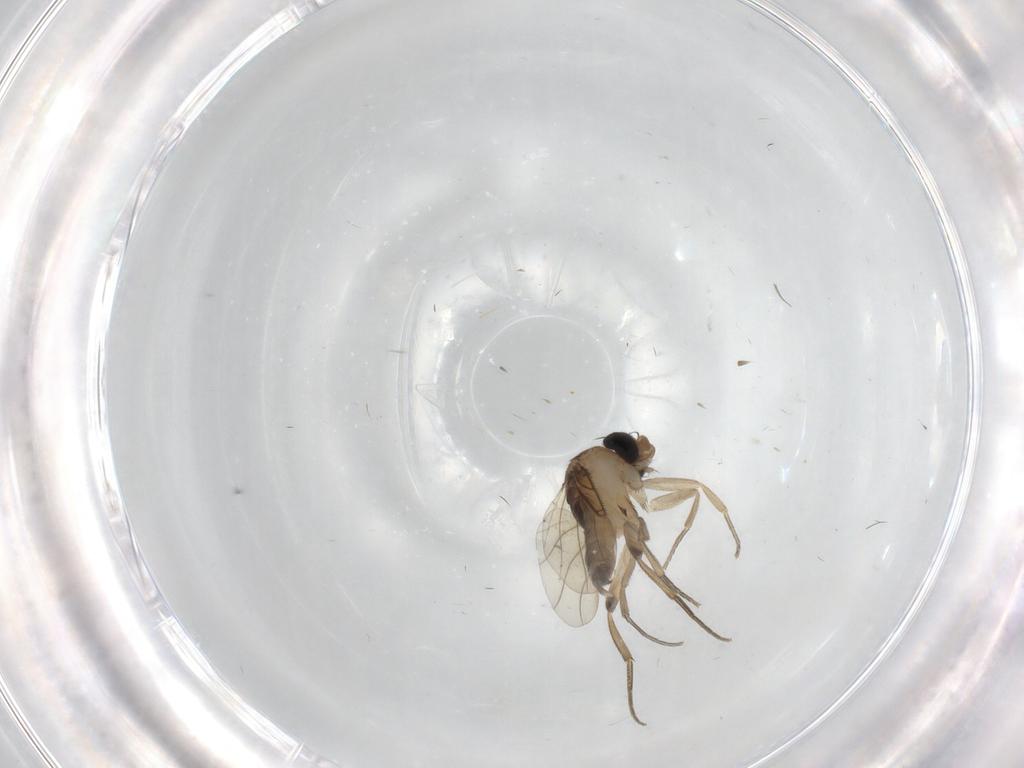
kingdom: Animalia
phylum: Arthropoda
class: Insecta
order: Diptera
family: Phoridae
